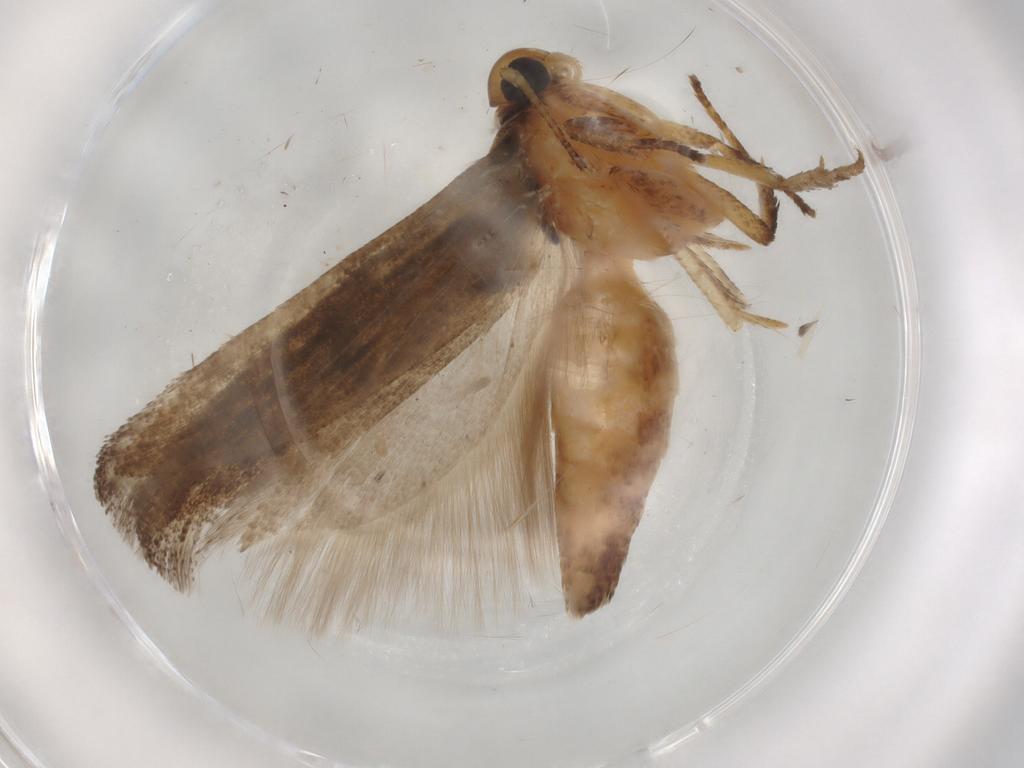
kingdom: Animalia
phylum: Arthropoda
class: Insecta
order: Lepidoptera
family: Gelechiidae
